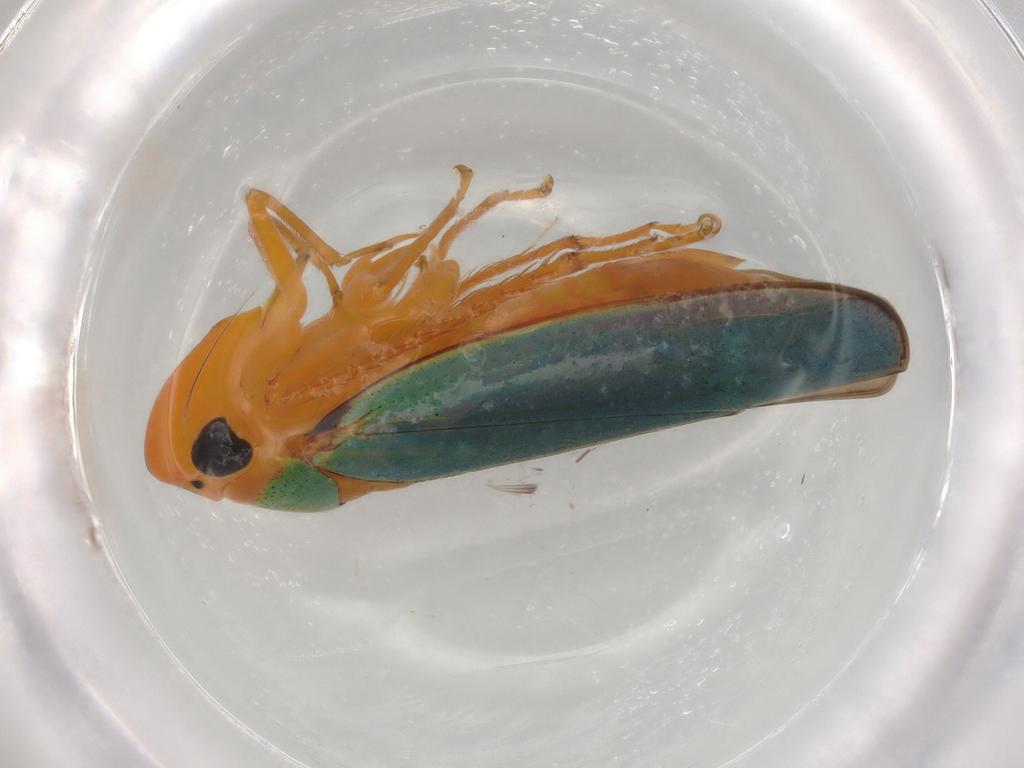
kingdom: Animalia
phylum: Arthropoda
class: Insecta
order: Hemiptera
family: Cicadellidae
